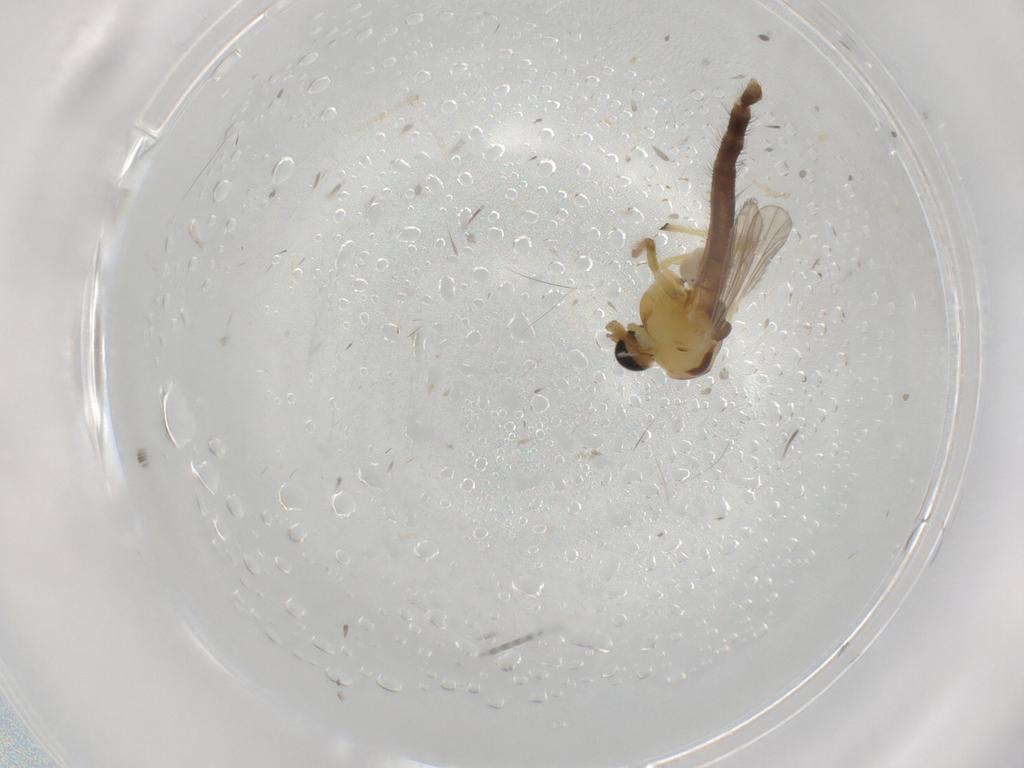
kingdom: Animalia
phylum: Arthropoda
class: Insecta
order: Diptera
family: Chironomidae
